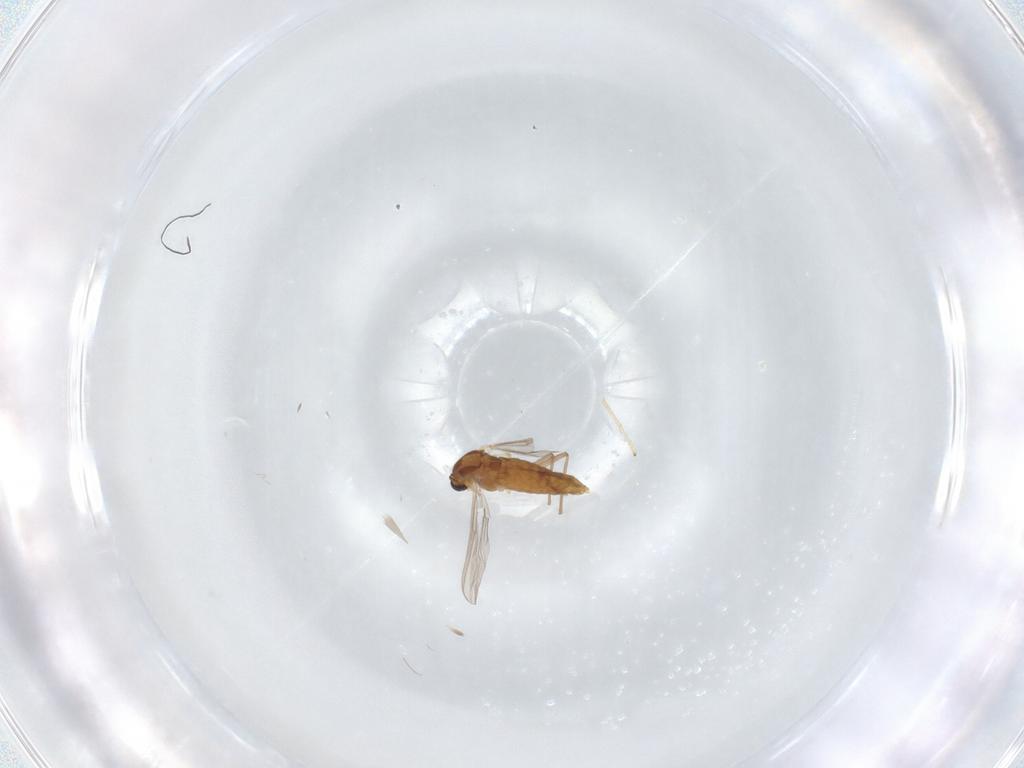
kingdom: Animalia
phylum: Arthropoda
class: Insecta
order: Diptera
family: Chironomidae
